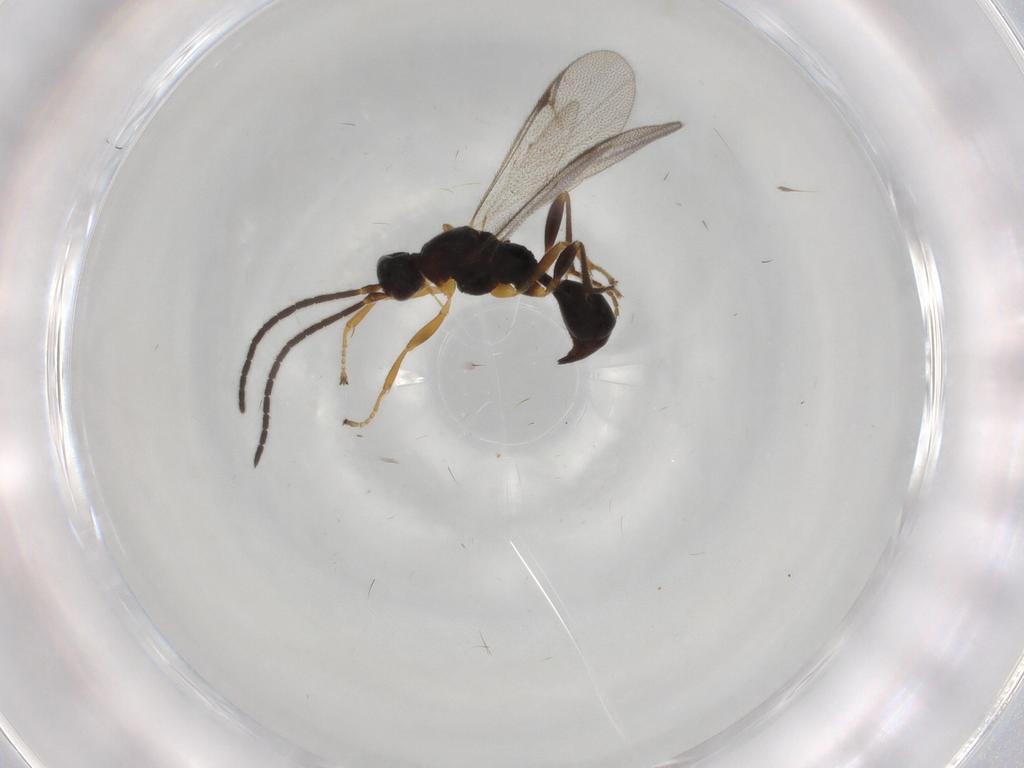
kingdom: Animalia
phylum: Arthropoda
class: Insecta
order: Hymenoptera
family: Proctotrupidae
